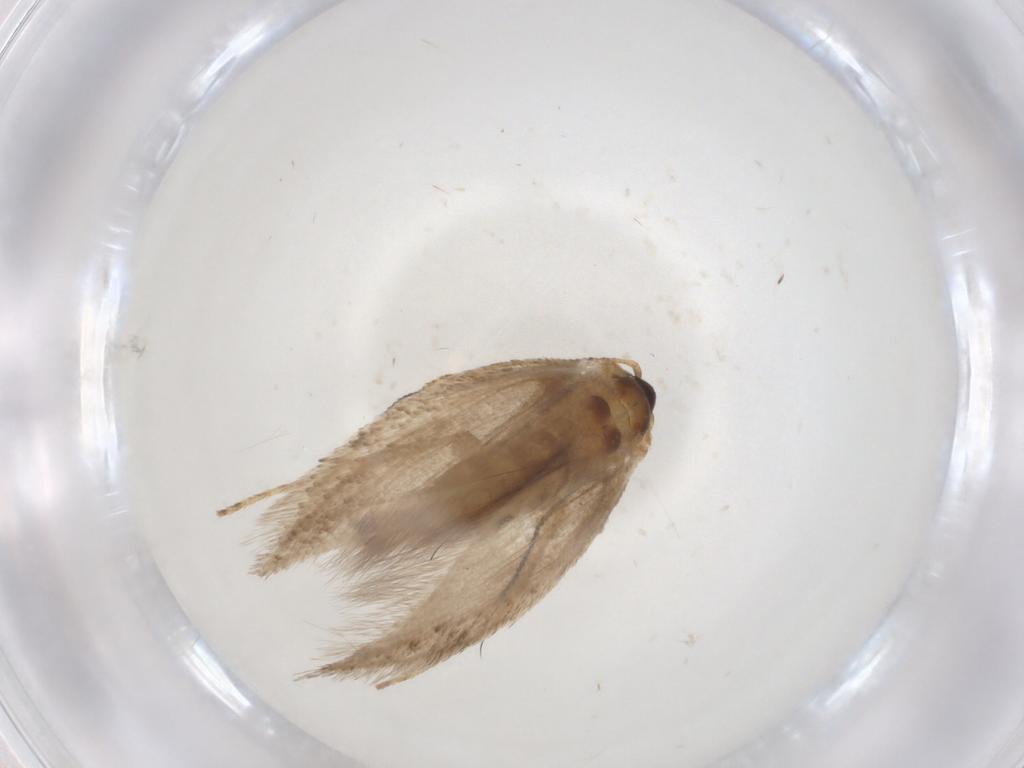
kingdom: Animalia
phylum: Arthropoda
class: Insecta
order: Lepidoptera
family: Nepticulidae
